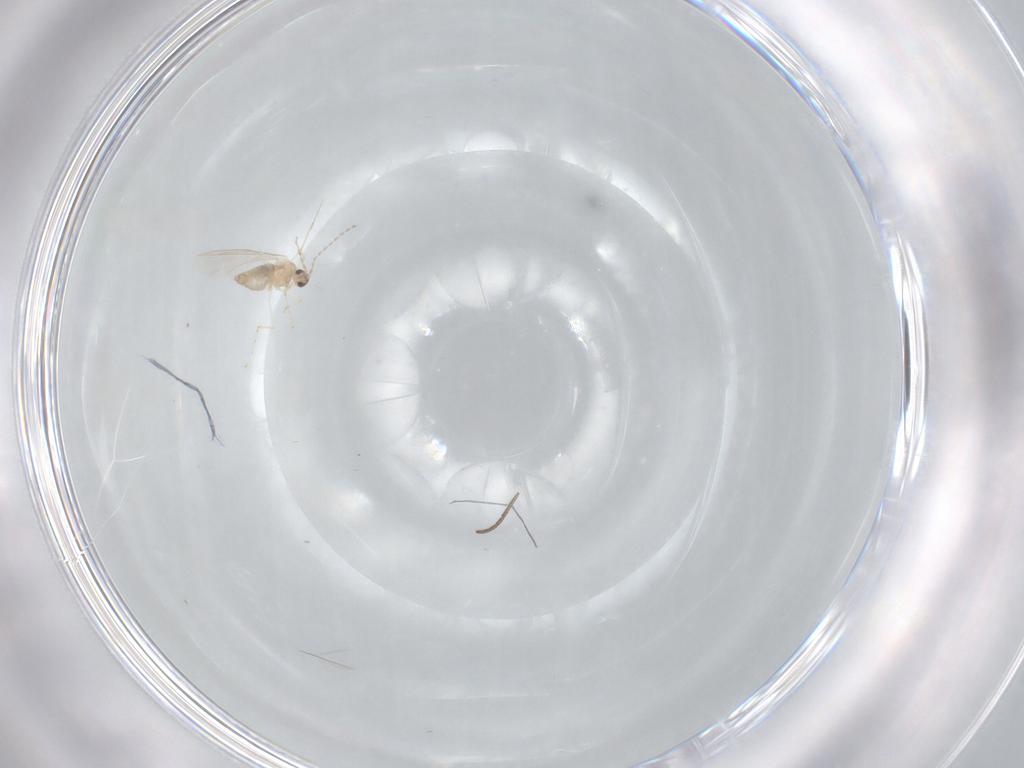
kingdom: Animalia
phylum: Arthropoda
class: Insecta
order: Diptera
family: Cecidomyiidae
